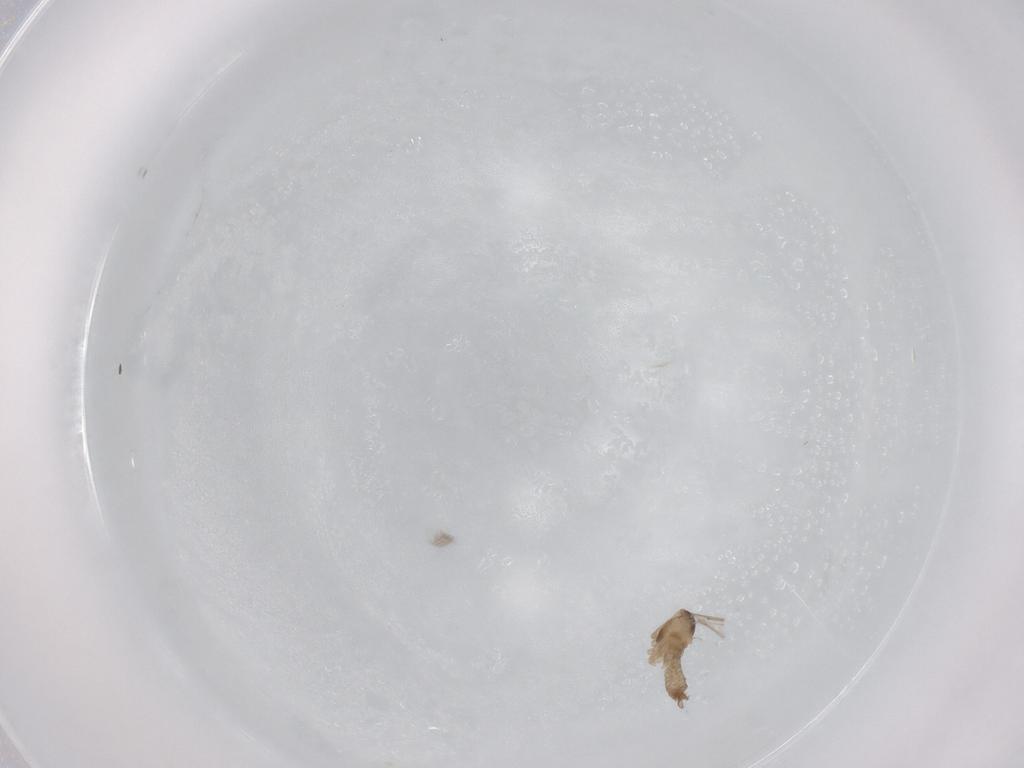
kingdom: Animalia
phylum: Arthropoda
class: Insecta
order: Diptera
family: Cecidomyiidae
